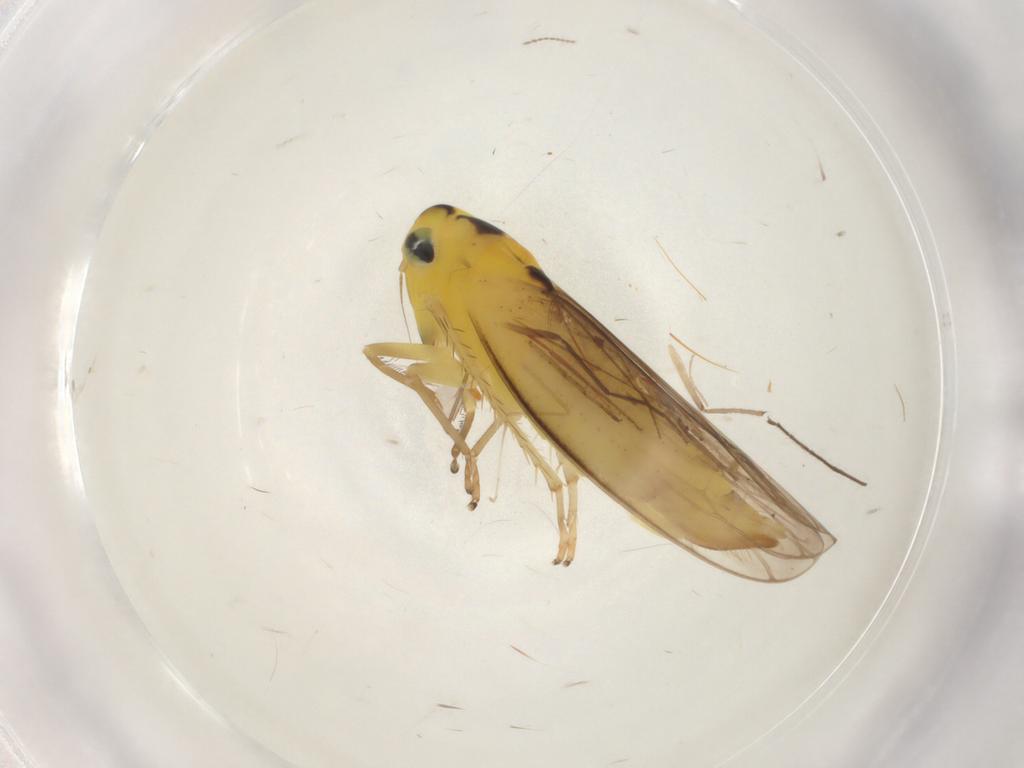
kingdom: Animalia
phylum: Arthropoda
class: Insecta
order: Hemiptera
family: Cicadellidae
